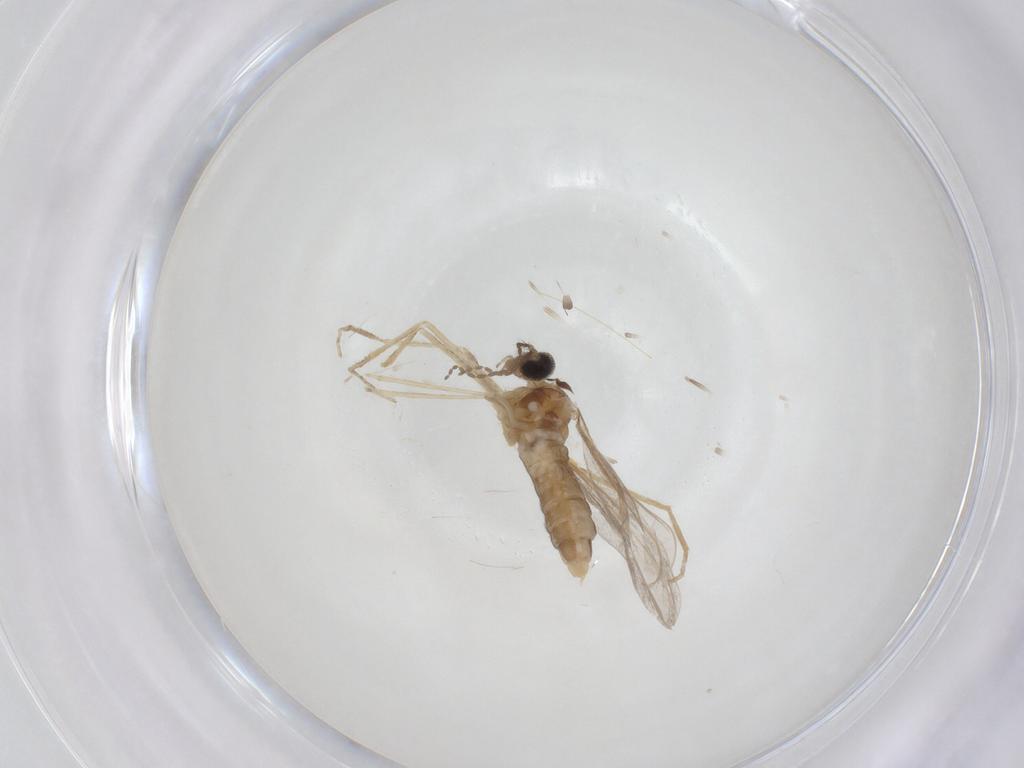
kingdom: Animalia
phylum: Arthropoda
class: Insecta
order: Diptera
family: Cecidomyiidae
